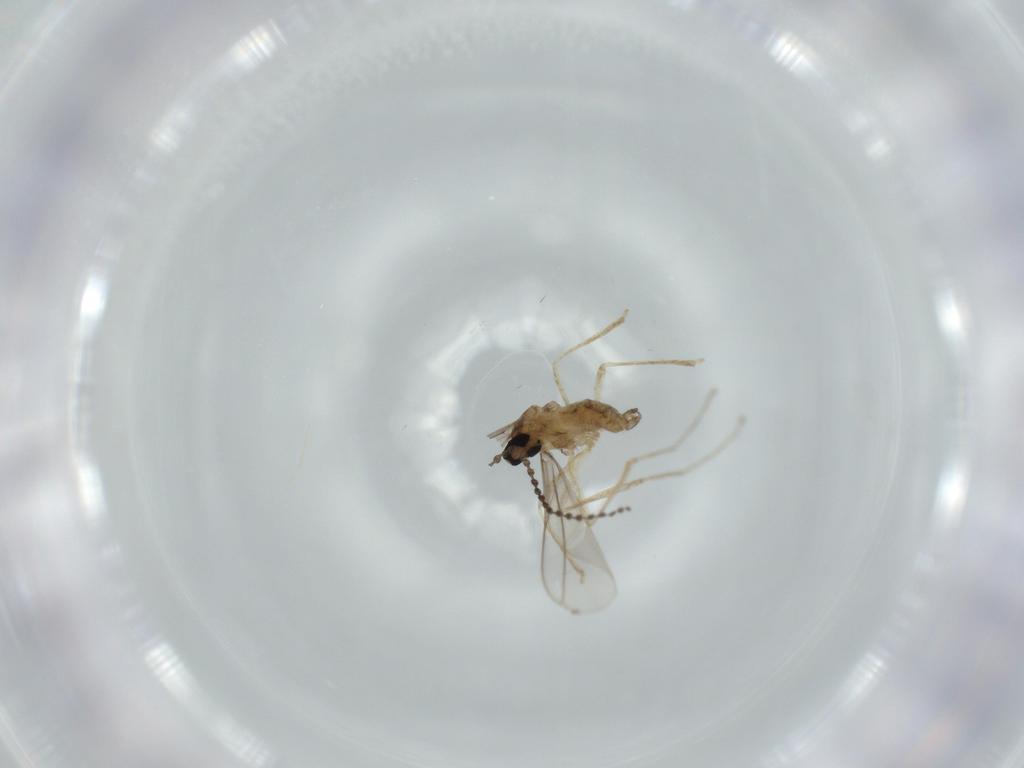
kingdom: Animalia
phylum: Arthropoda
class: Insecta
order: Diptera
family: Cecidomyiidae
